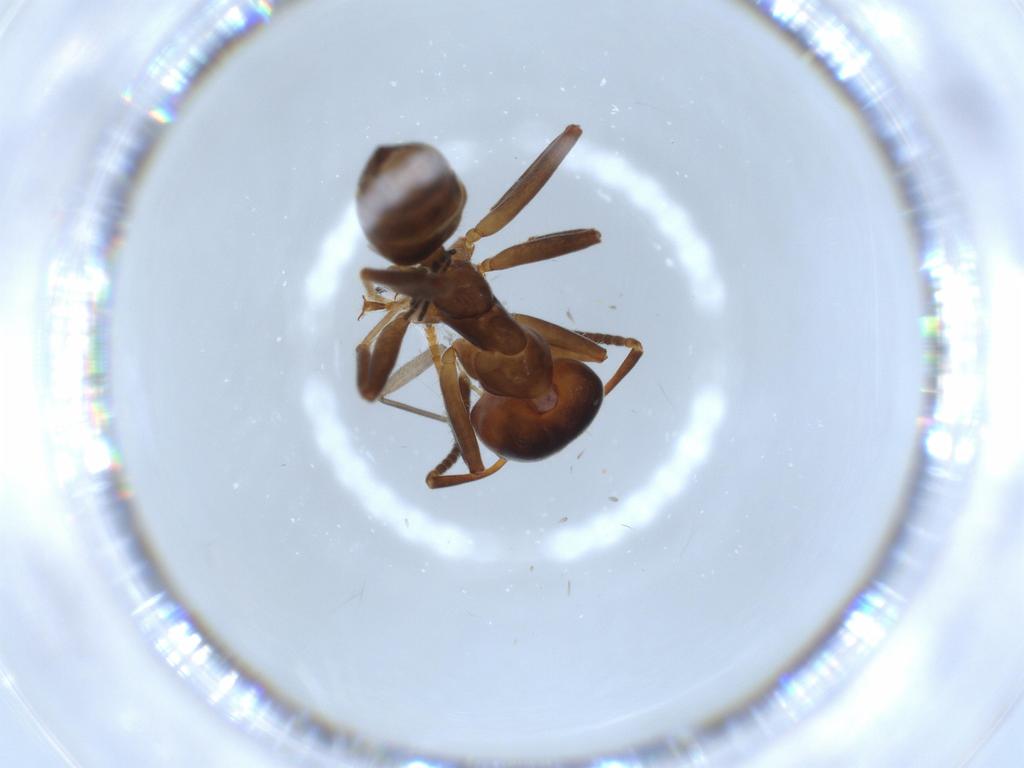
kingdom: Animalia
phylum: Arthropoda
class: Insecta
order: Hymenoptera
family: Formicidae
